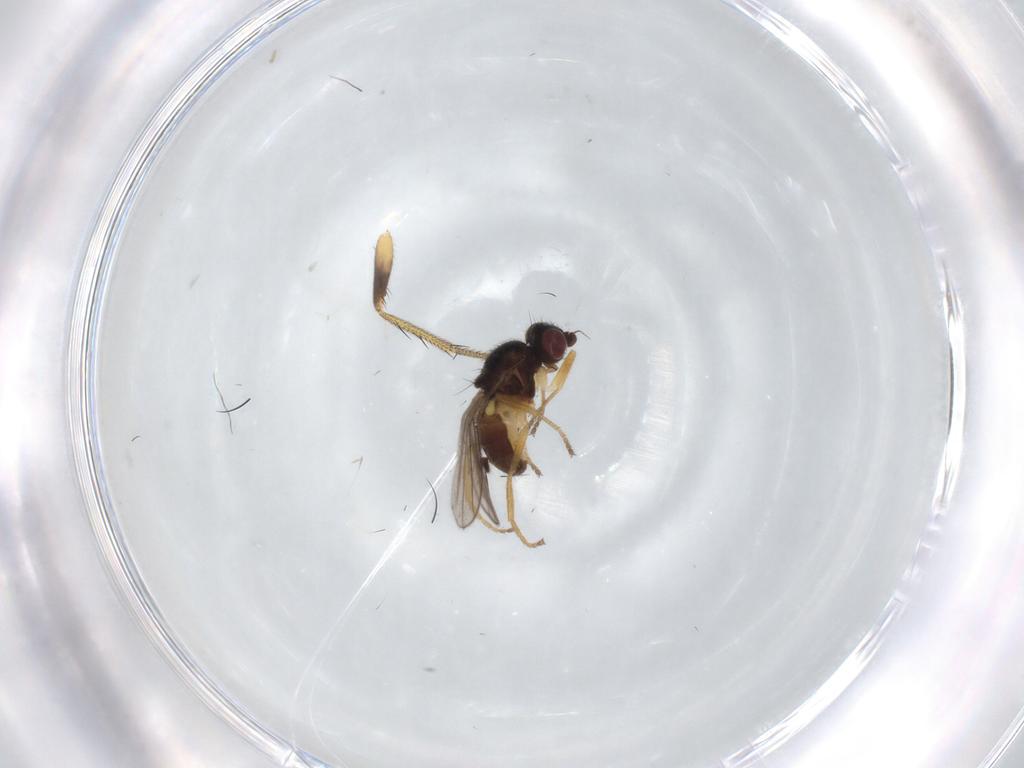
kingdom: Animalia
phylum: Arthropoda
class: Insecta
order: Diptera
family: Chloropidae
